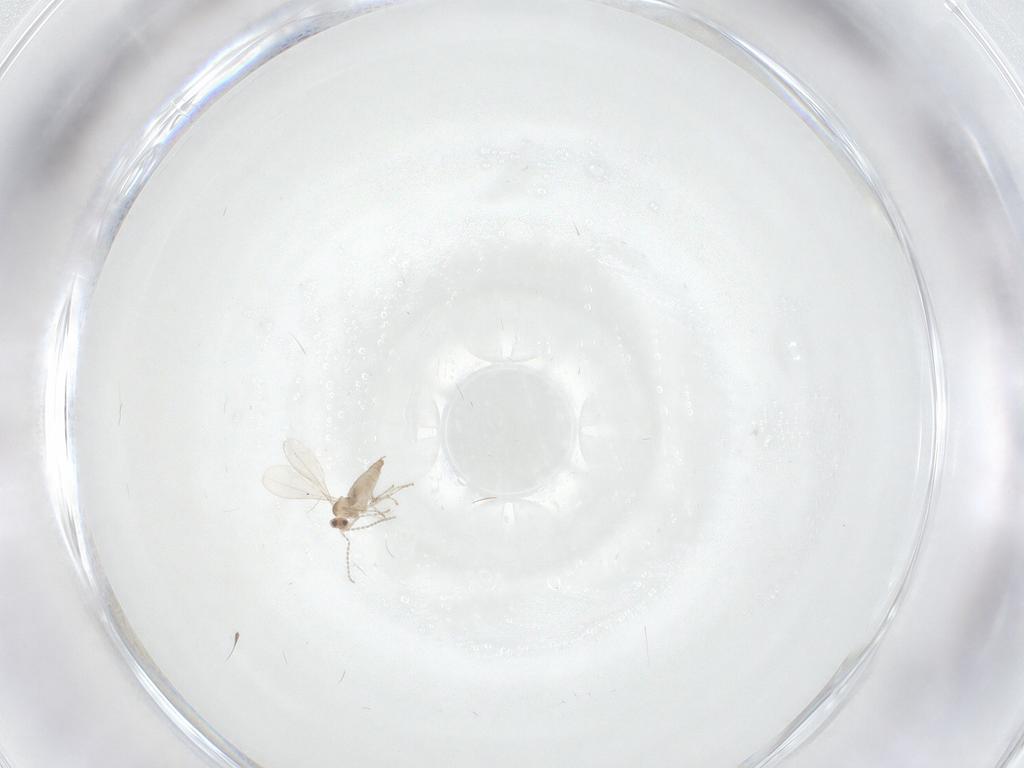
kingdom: Animalia
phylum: Arthropoda
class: Insecta
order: Diptera
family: Cecidomyiidae
